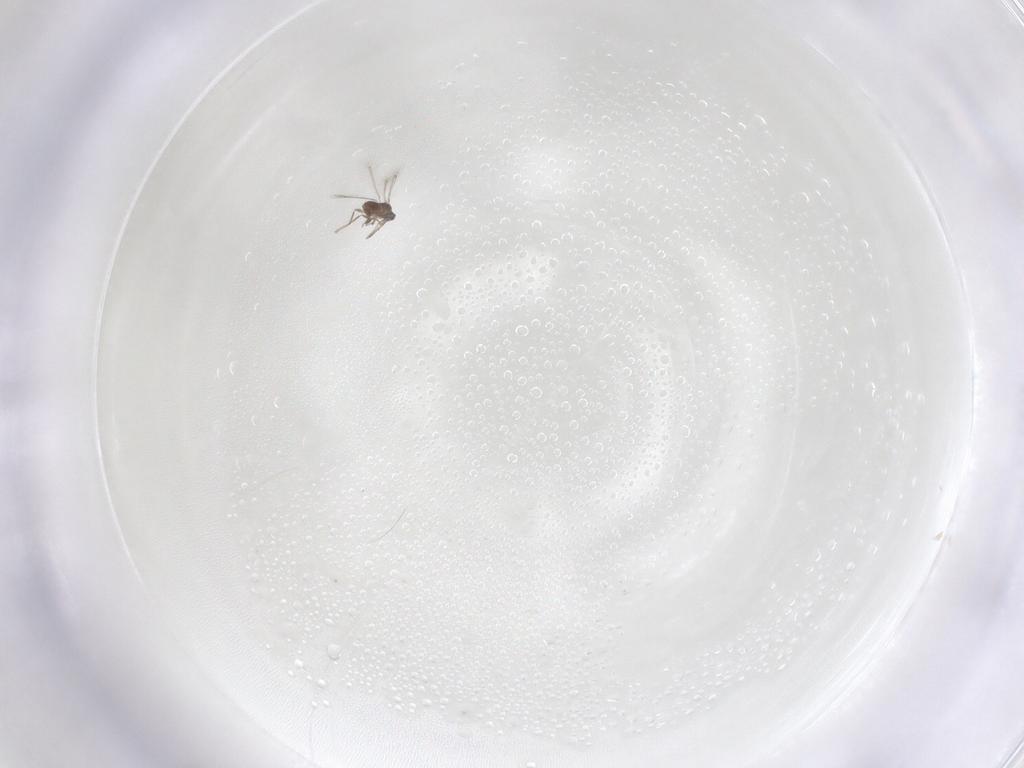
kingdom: Animalia
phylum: Arthropoda
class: Insecta
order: Hymenoptera
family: Mymaridae
